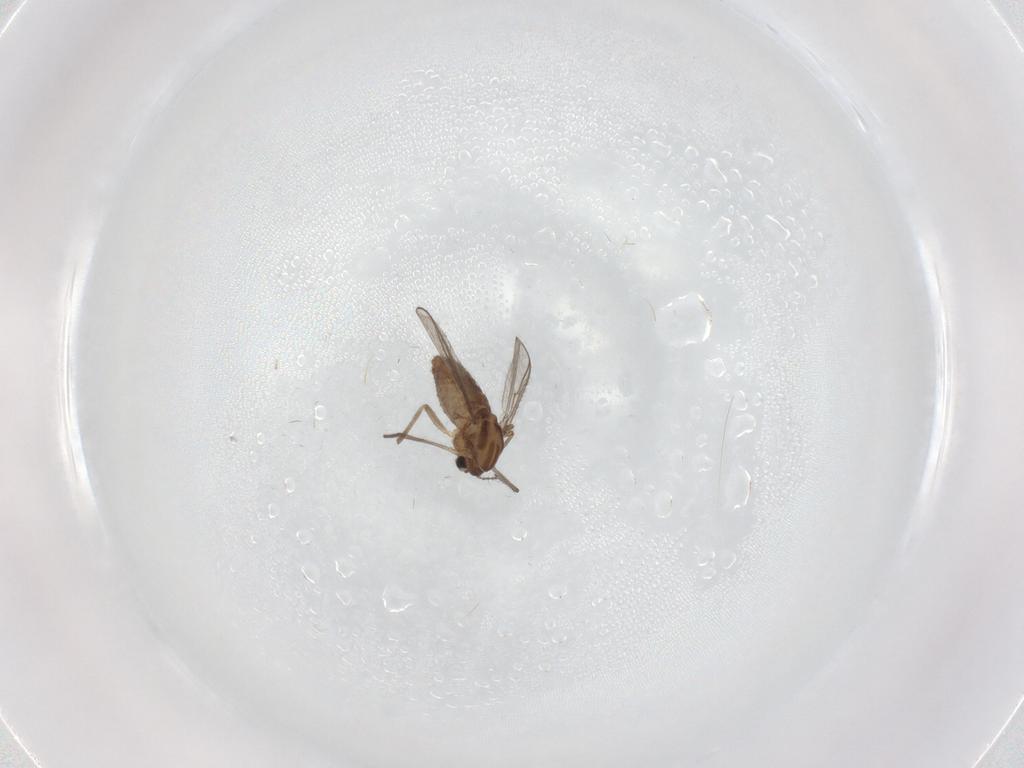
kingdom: Animalia
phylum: Arthropoda
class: Insecta
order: Diptera
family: Chironomidae
